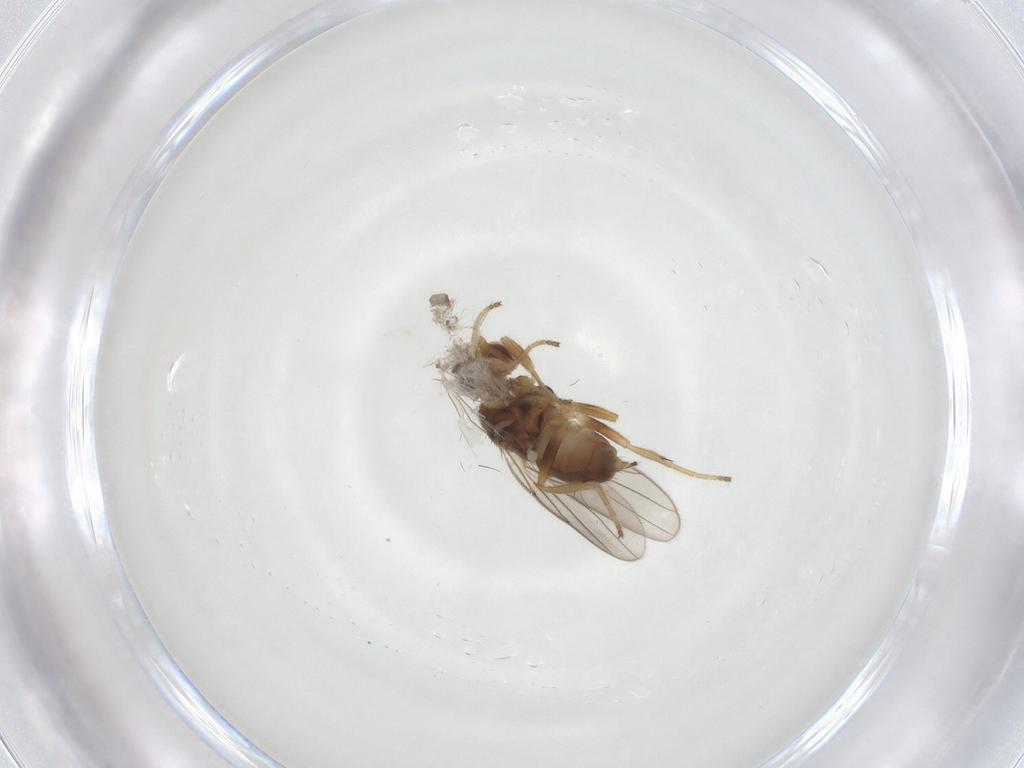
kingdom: Animalia
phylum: Arthropoda
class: Insecta
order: Diptera
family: Chloropidae
